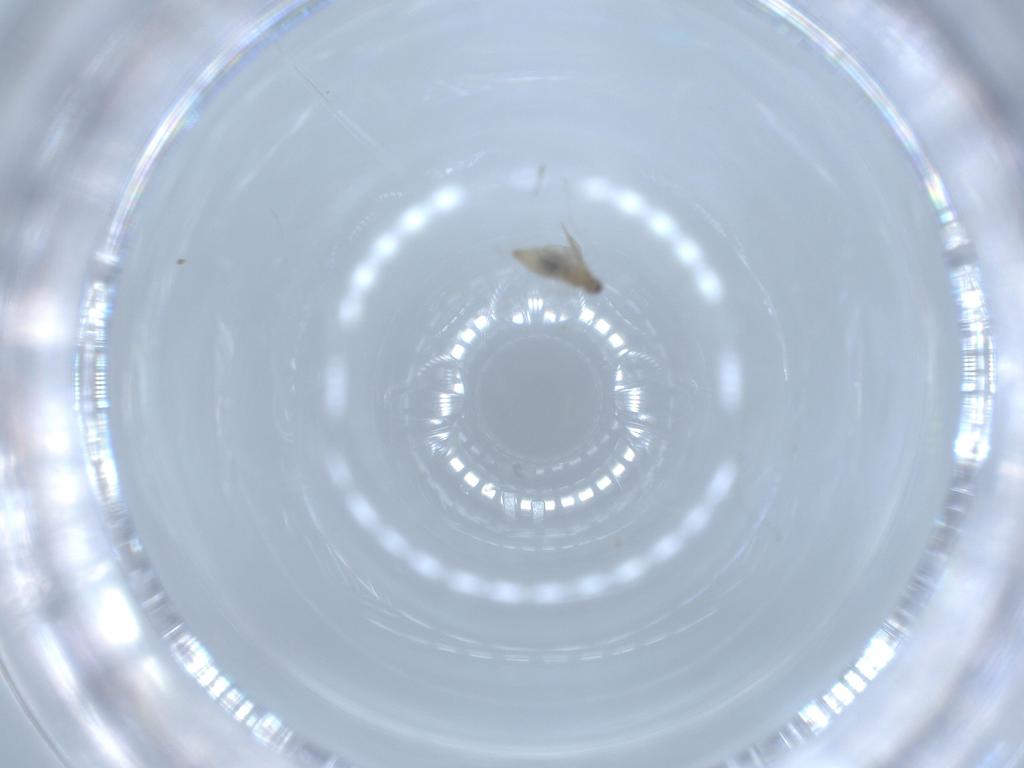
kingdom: Animalia
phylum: Arthropoda
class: Insecta
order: Diptera
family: Cecidomyiidae
